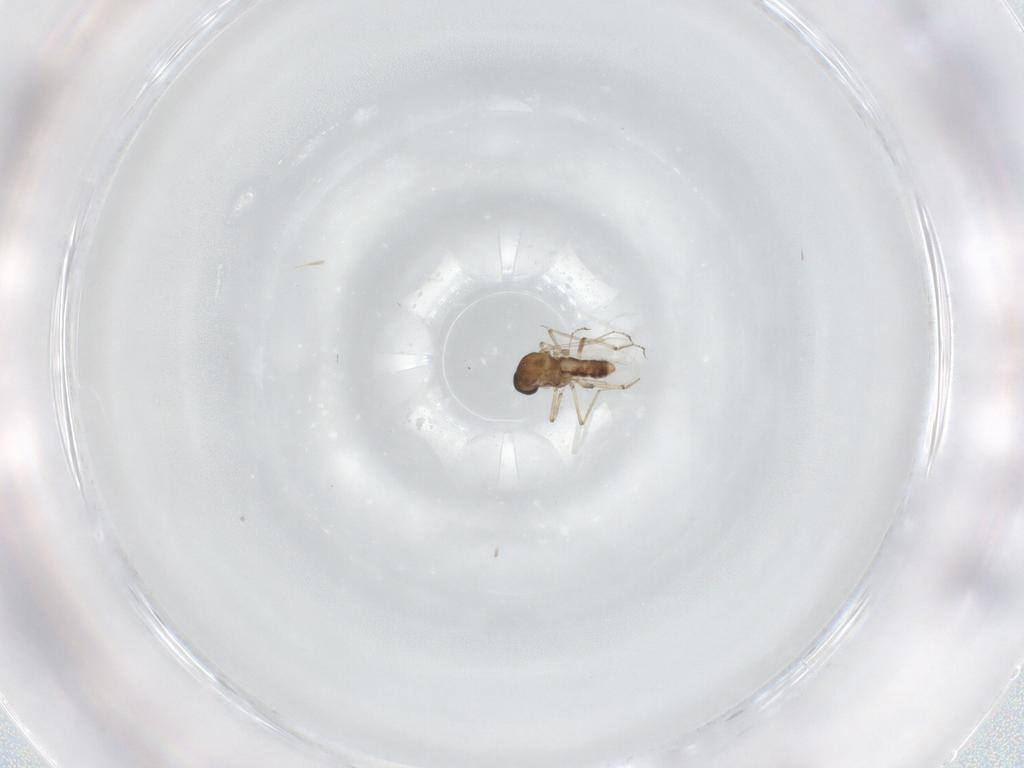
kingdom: Animalia
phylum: Arthropoda
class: Insecta
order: Diptera
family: Ceratopogonidae
